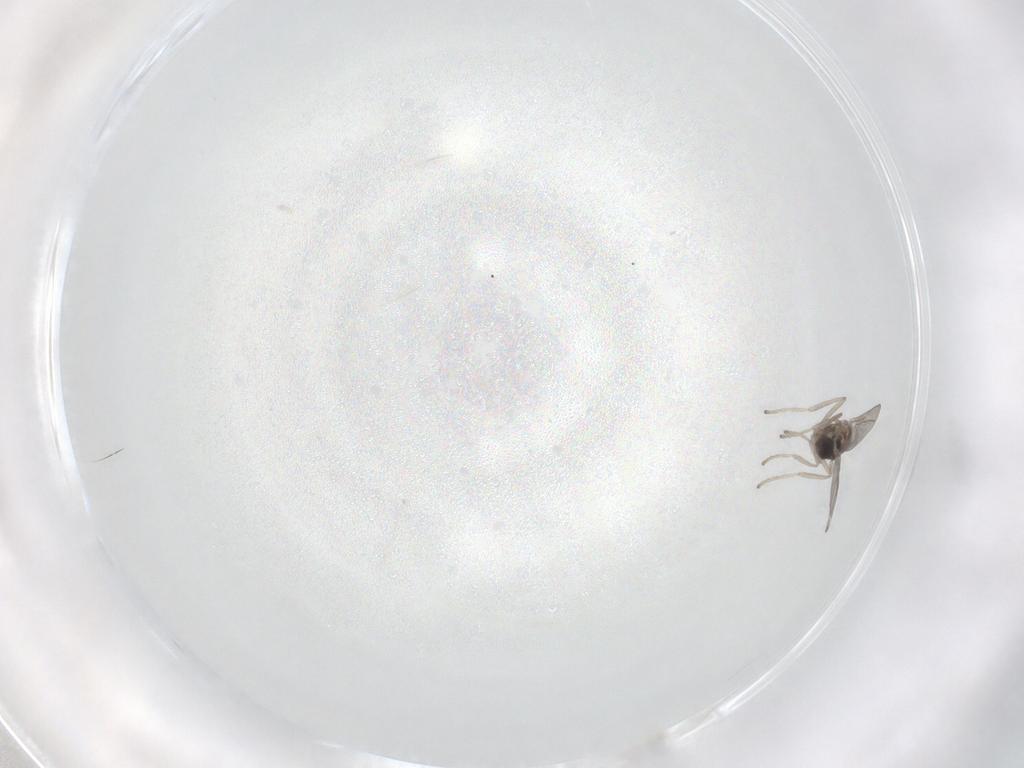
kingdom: Animalia
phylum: Arthropoda
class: Insecta
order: Diptera
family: Cecidomyiidae
